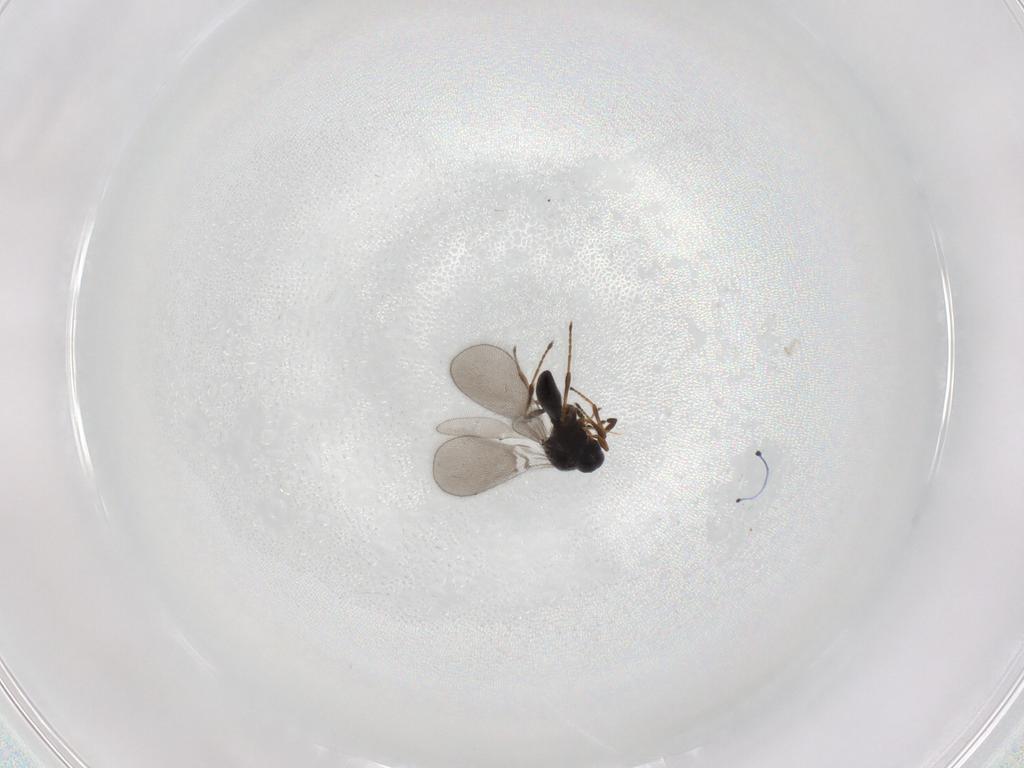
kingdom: Animalia
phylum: Arthropoda
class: Insecta
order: Hymenoptera
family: Platygastridae
